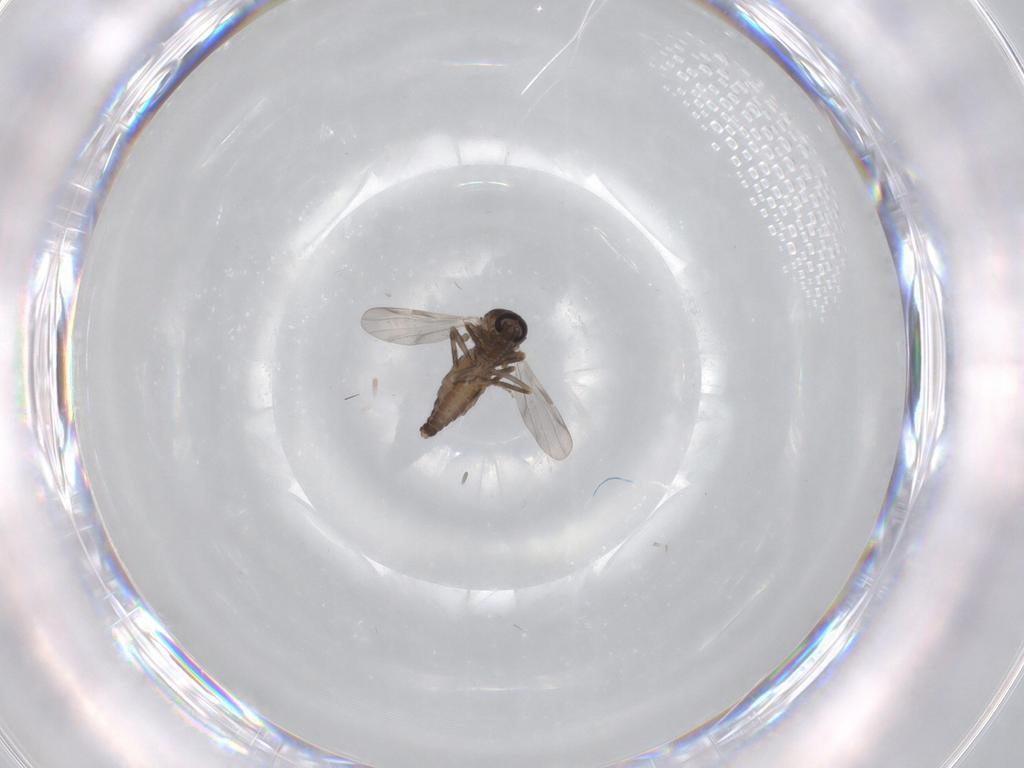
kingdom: Animalia
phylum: Arthropoda
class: Insecta
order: Diptera
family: Ceratopogonidae
